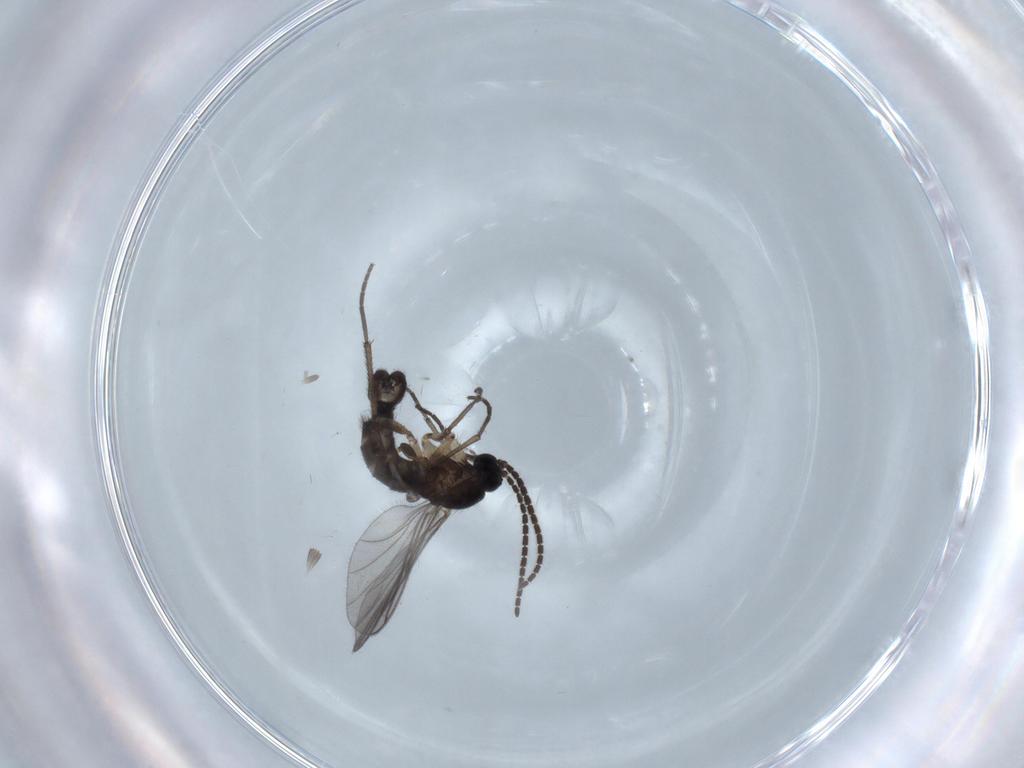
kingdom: Animalia
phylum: Arthropoda
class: Insecta
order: Diptera
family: Sciaridae
